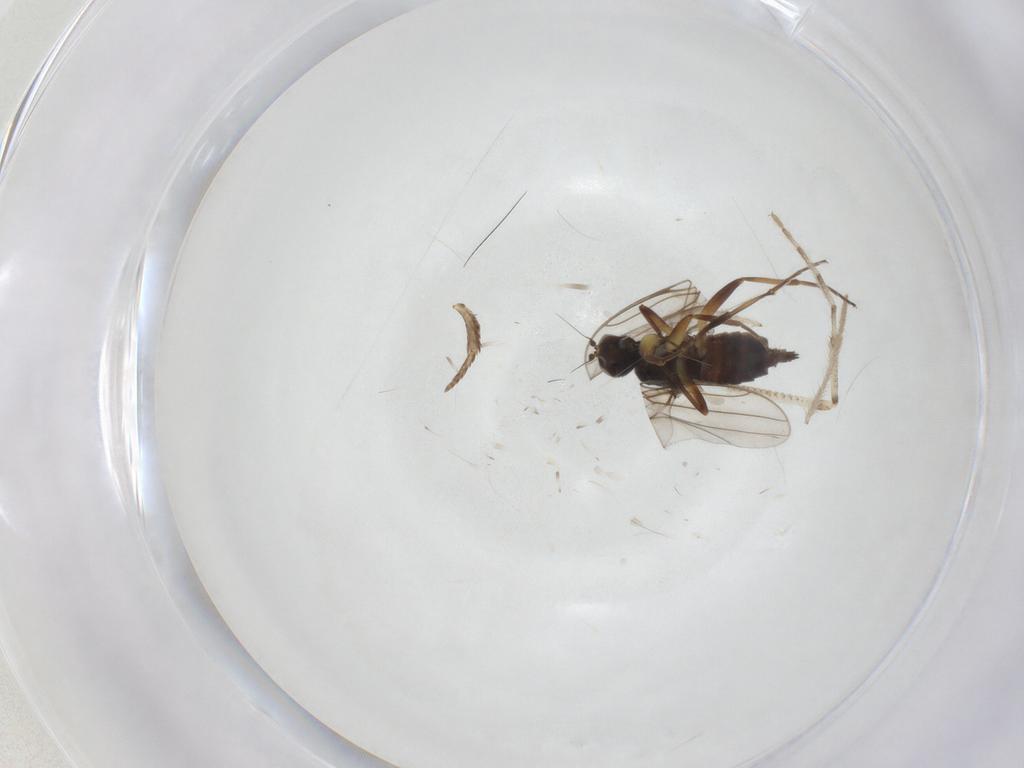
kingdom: Animalia
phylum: Arthropoda
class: Insecta
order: Diptera
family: Hybotidae
